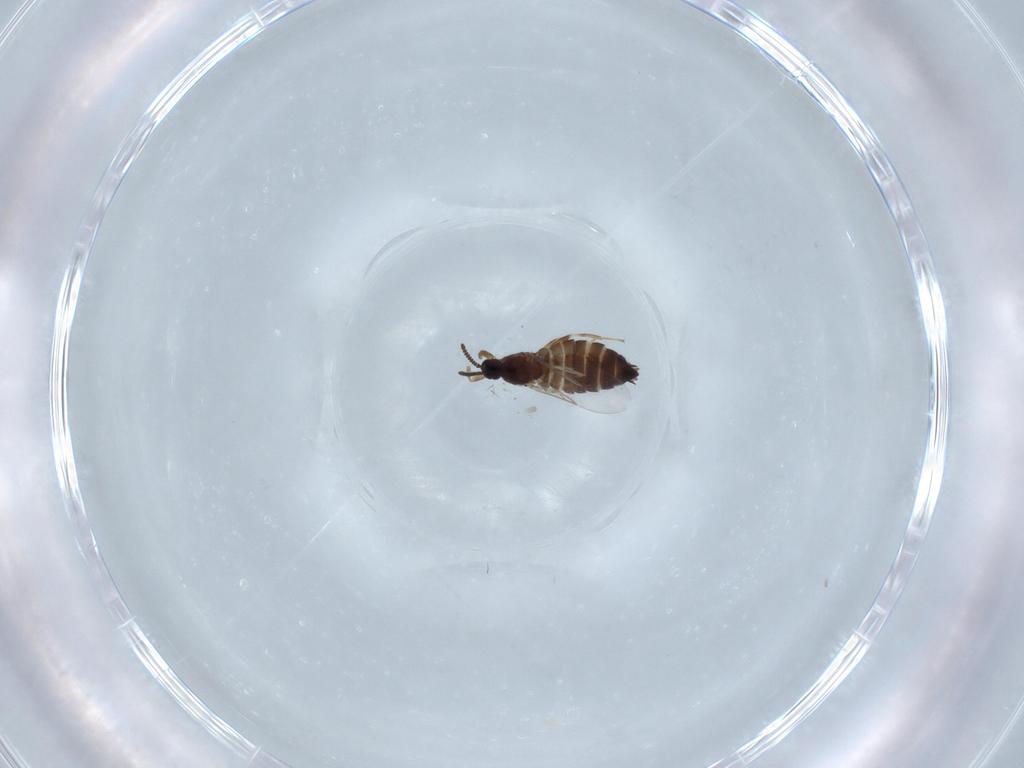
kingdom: Animalia
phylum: Arthropoda
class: Insecta
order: Diptera
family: Scatopsidae
